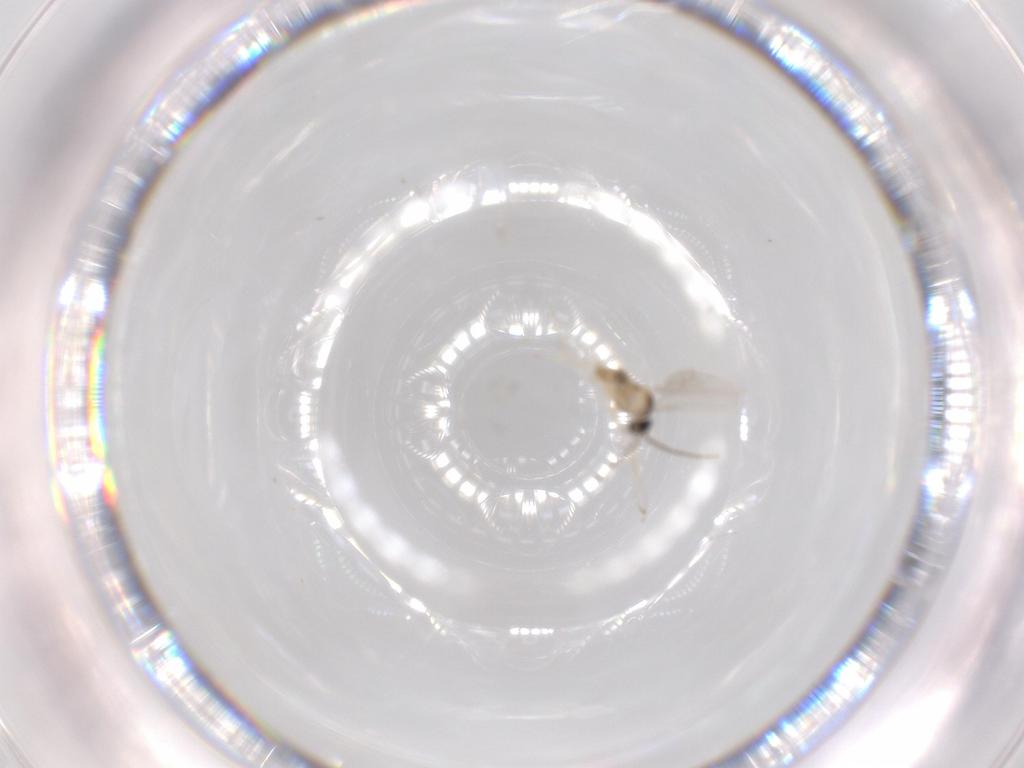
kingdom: Animalia
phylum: Arthropoda
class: Insecta
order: Diptera
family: Cecidomyiidae
